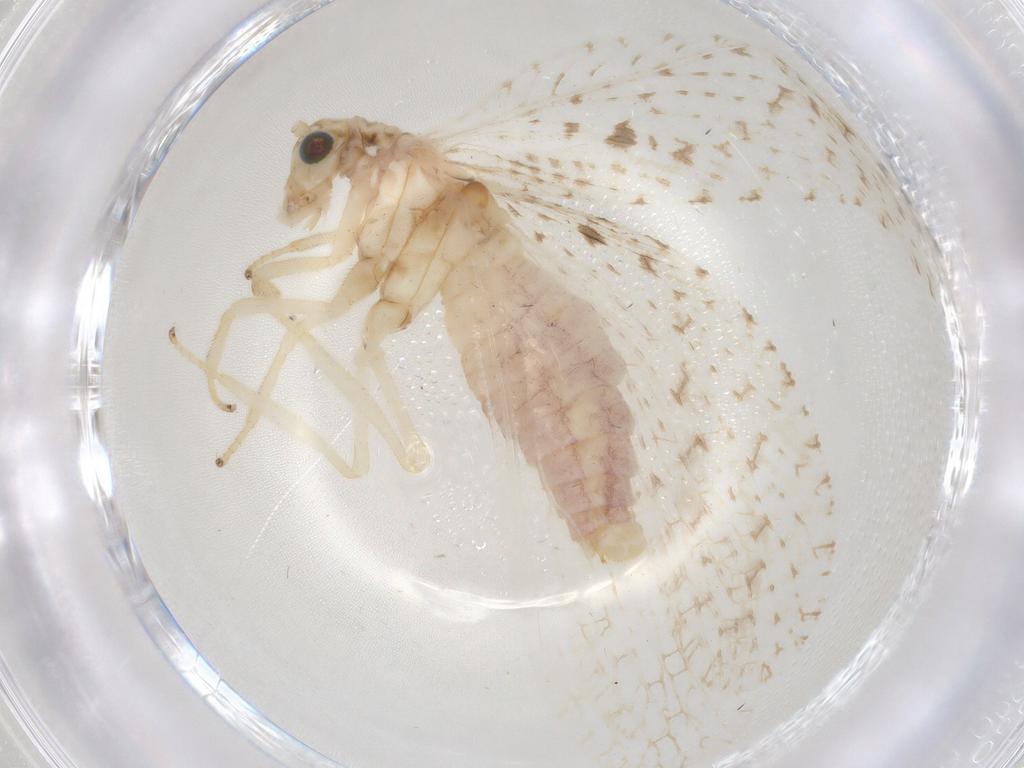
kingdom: Animalia
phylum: Arthropoda
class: Insecta
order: Neuroptera
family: Hemerobiidae
